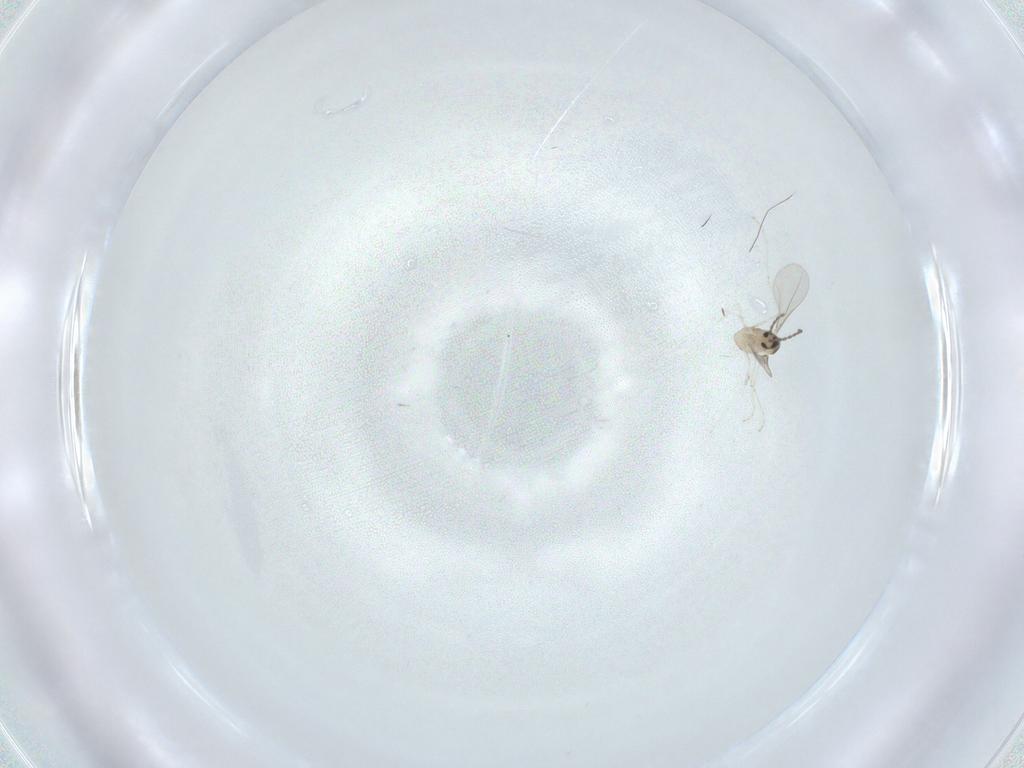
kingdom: Animalia
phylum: Arthropoda
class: Insecta
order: Diptera
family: Cecidomyiidae
